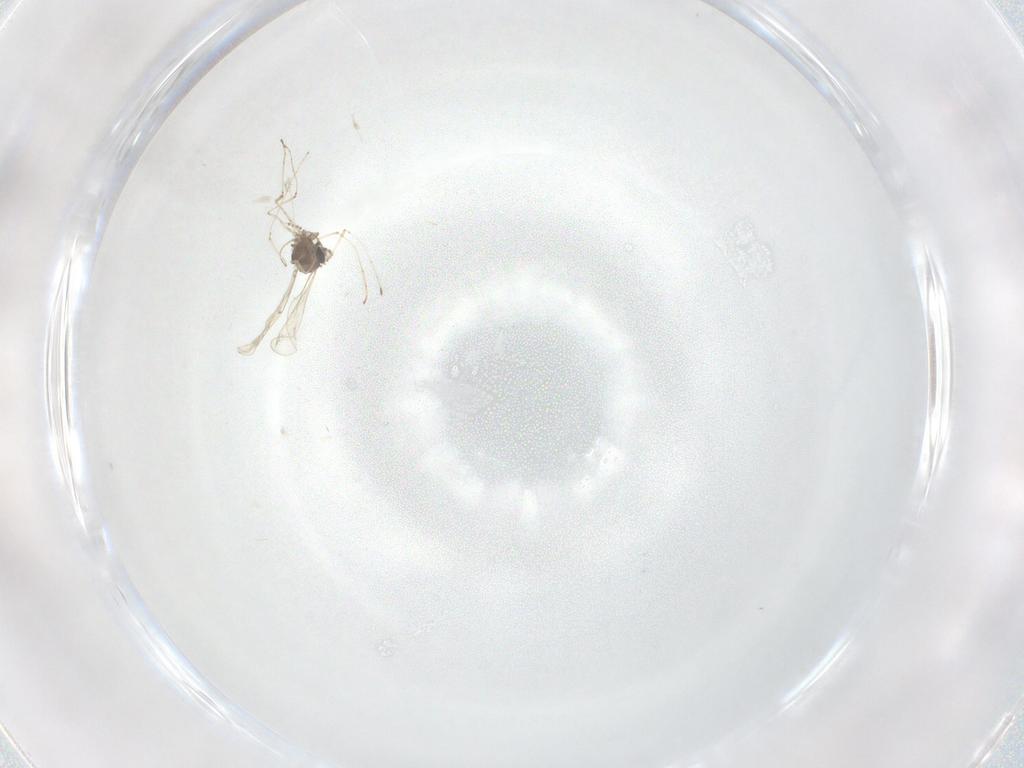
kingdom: Animalia
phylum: Arthropoda
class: Insecta
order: Diptera
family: Cecidomyiidae
